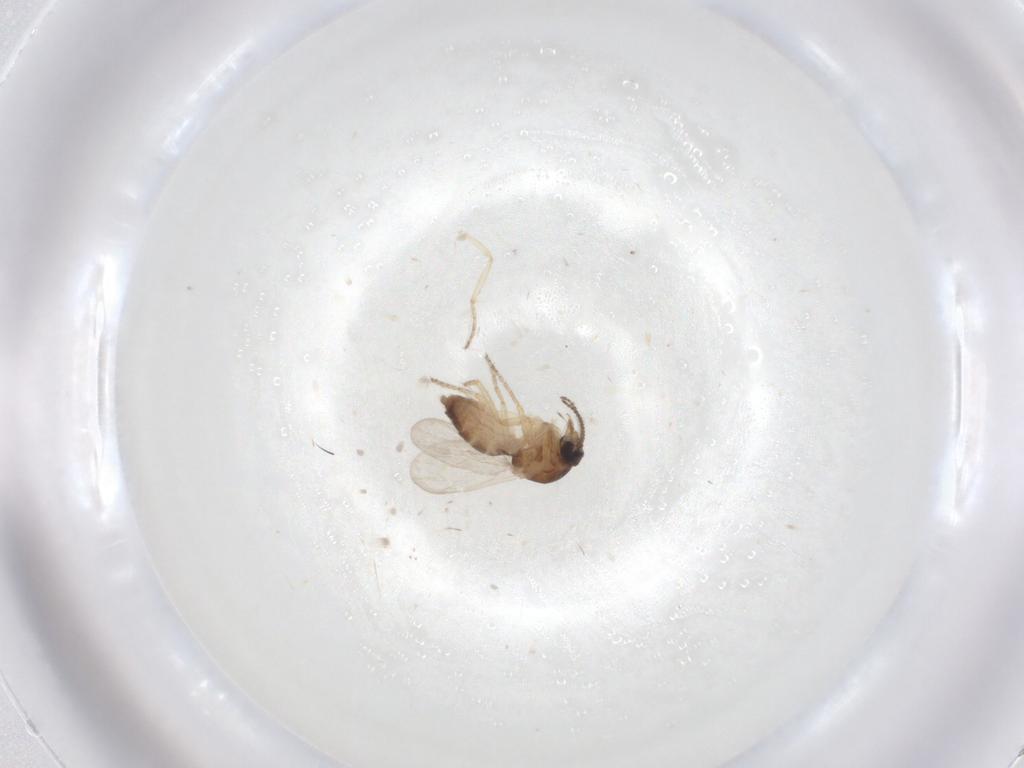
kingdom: Animalia
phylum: Arthropoda
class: Insecta
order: Diptera
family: Ceratopogonidae
